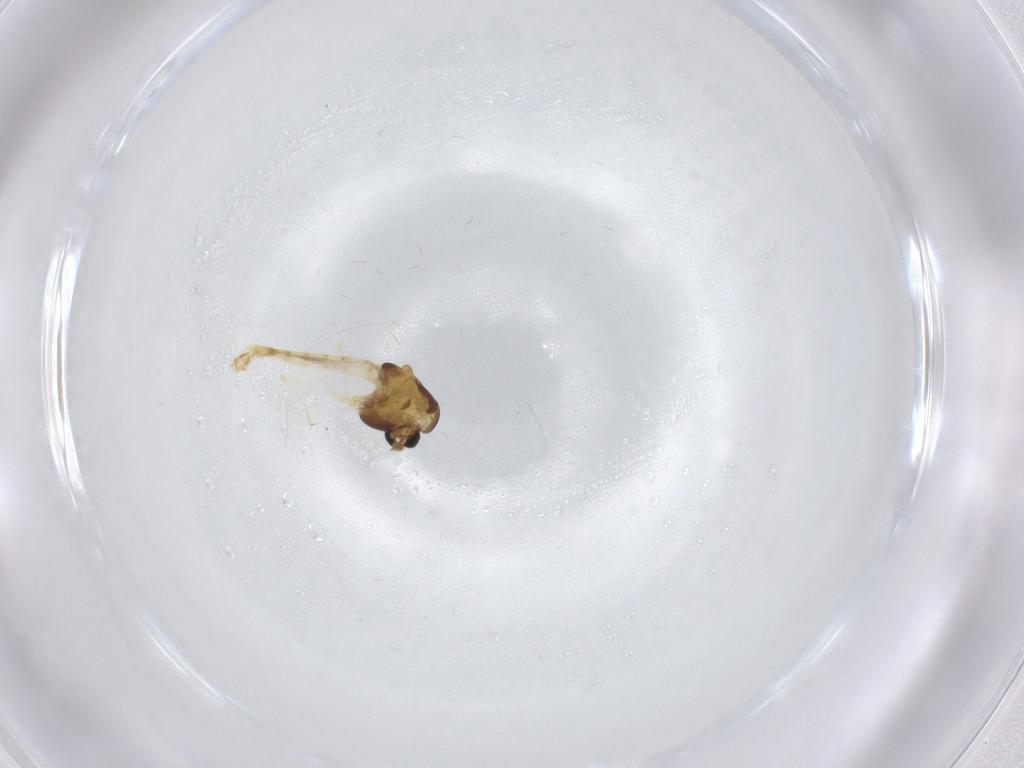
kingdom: Animalia
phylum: Arthropoda
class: Insecta
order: Diptera
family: Chironomidae
